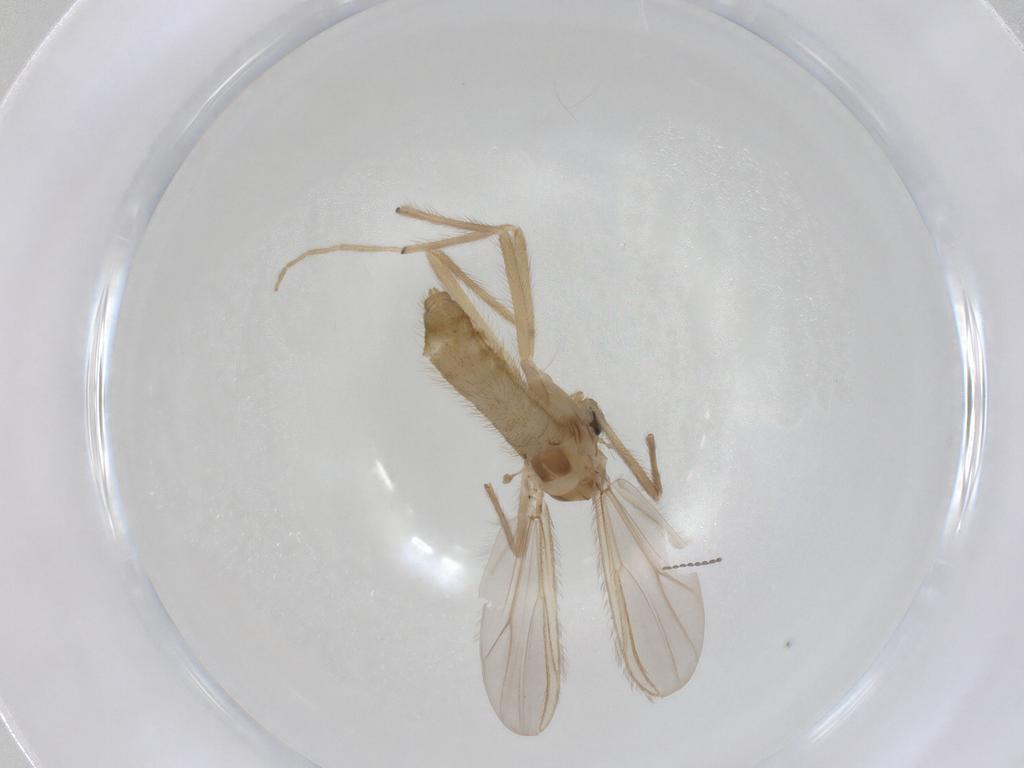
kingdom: Animalia
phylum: Arthropoda
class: Insecta
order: Diptera
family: Chironomidae
